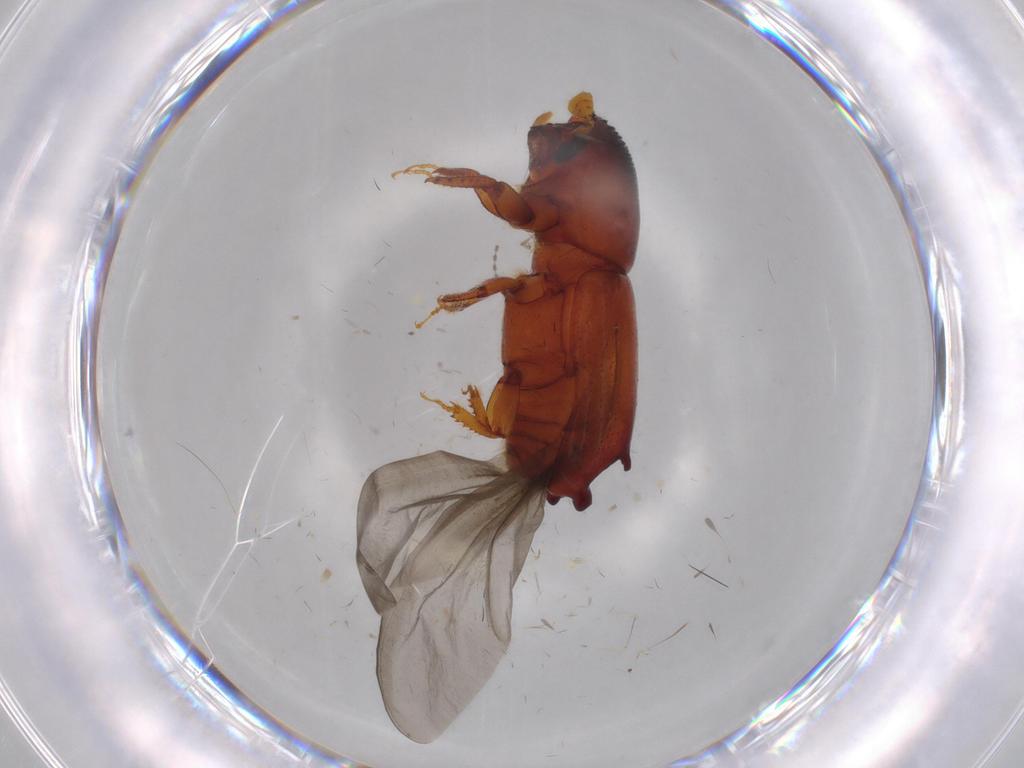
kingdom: Animalia
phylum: Arthropoda
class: Insecta
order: Coleoptera
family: Curculionidae
